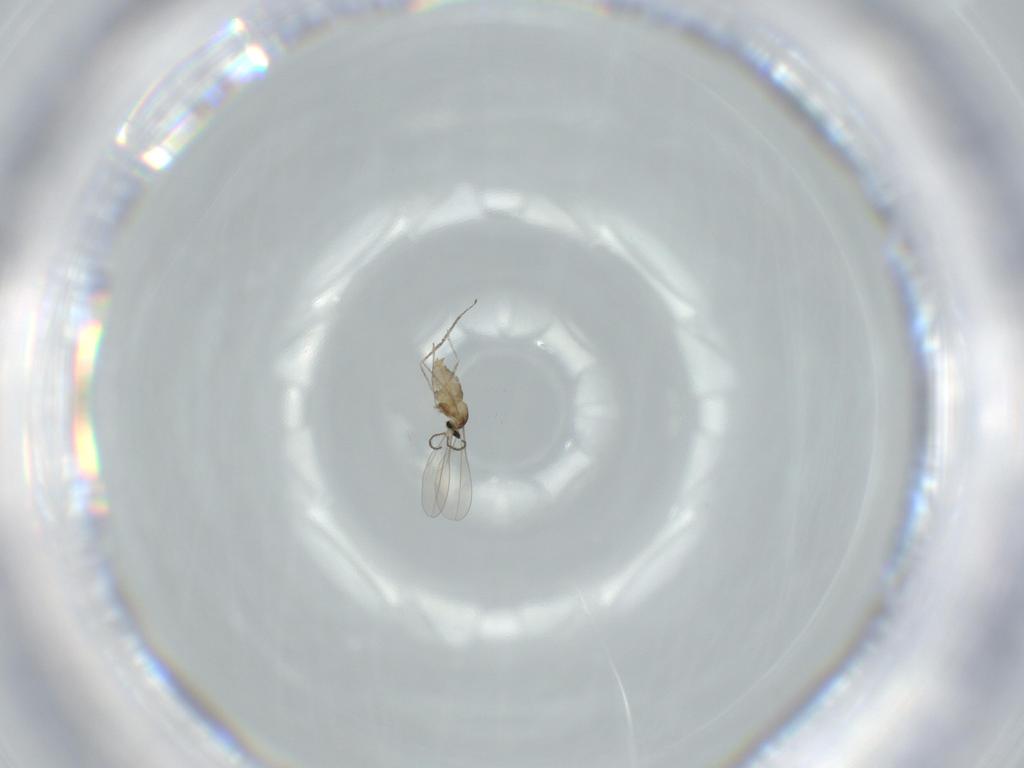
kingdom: Animalia
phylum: Arthropoda
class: Insecta
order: Diptera
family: Cecidomyiidae
